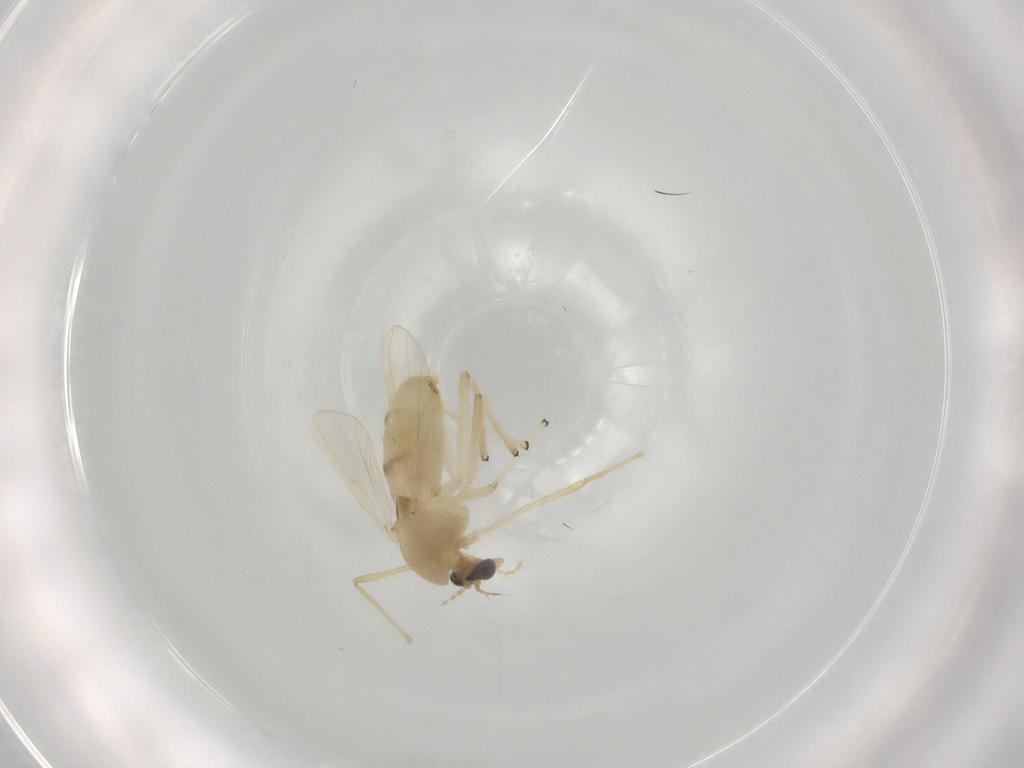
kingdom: Animalia
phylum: Arthropoda
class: Insecta
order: Diptera
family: Chironomidae
